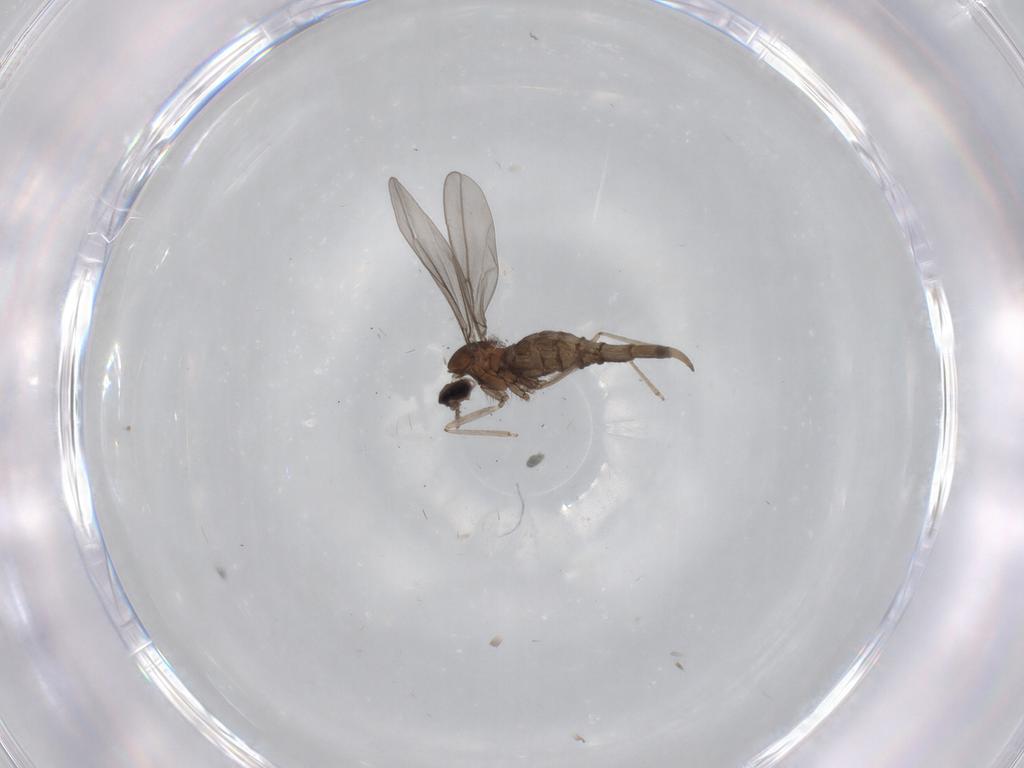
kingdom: Animalia
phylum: Arthropoda
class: Insecta
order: Diptera
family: Cecidomyiidae
